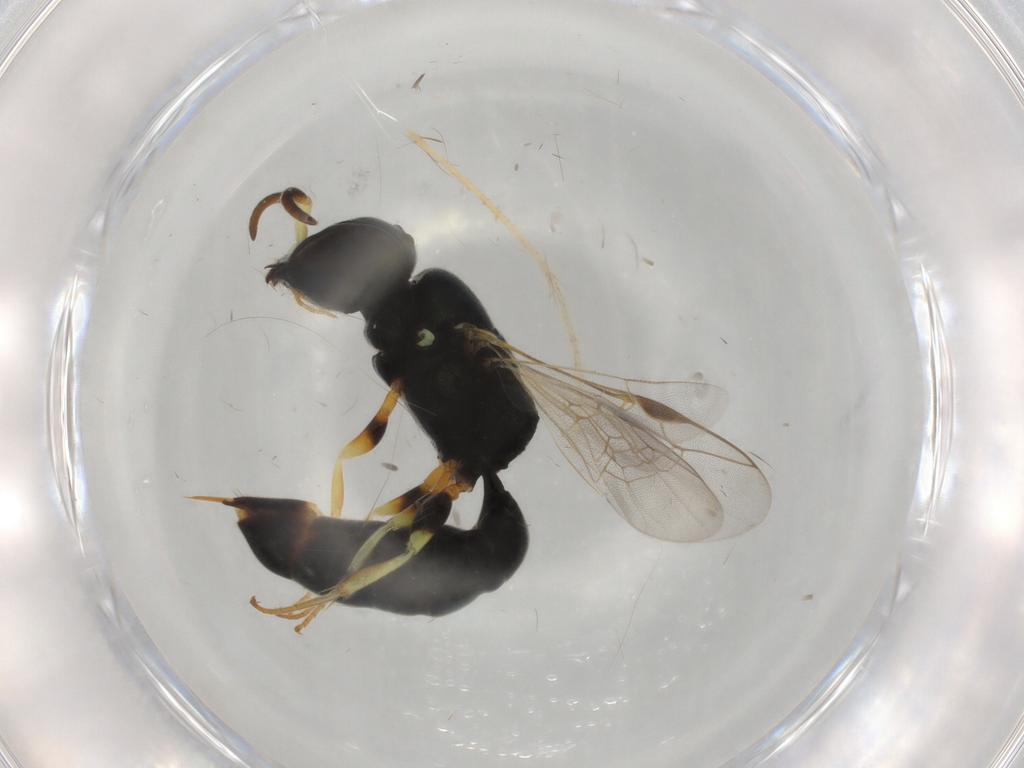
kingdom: Animalia
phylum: Arthropoda
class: Insecta
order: Hymenoptera
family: Pemphredonidae
